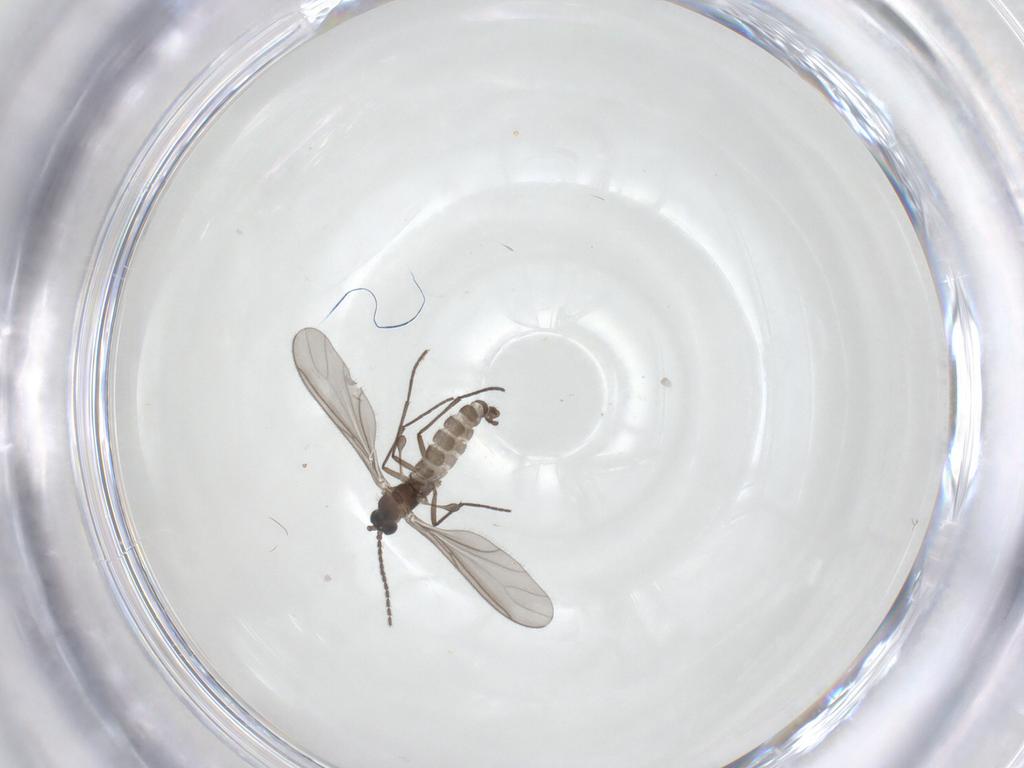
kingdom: Animalia
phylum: Arthropoda
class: Insecta
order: Diptera
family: Sciaridae
